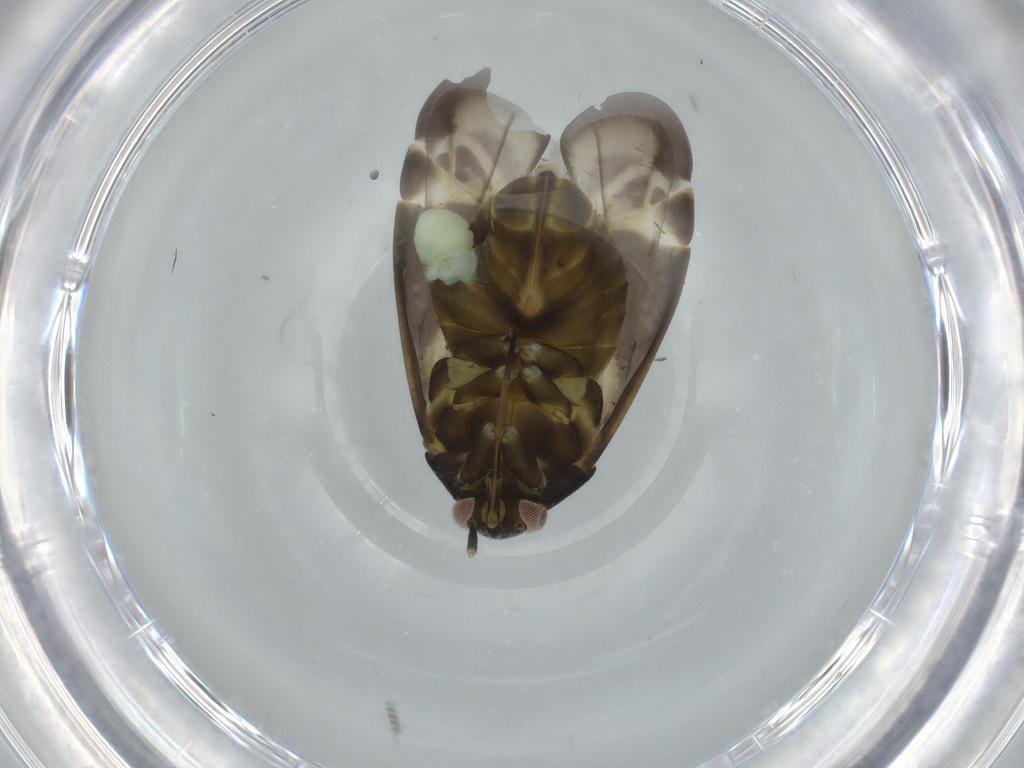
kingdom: Animalia
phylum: Arthropoda
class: Insecta
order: Hemiptera
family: Miridae
